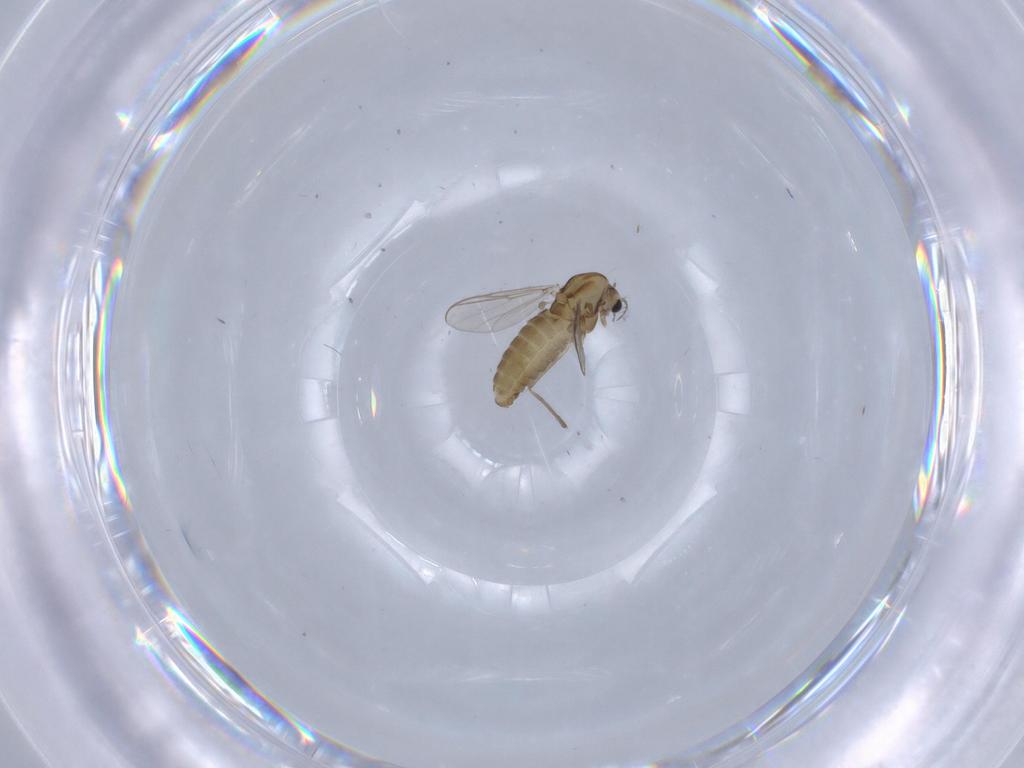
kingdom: Animalia
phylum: Arthropoda
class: Insecta
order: Diptera
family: Chironomidae
